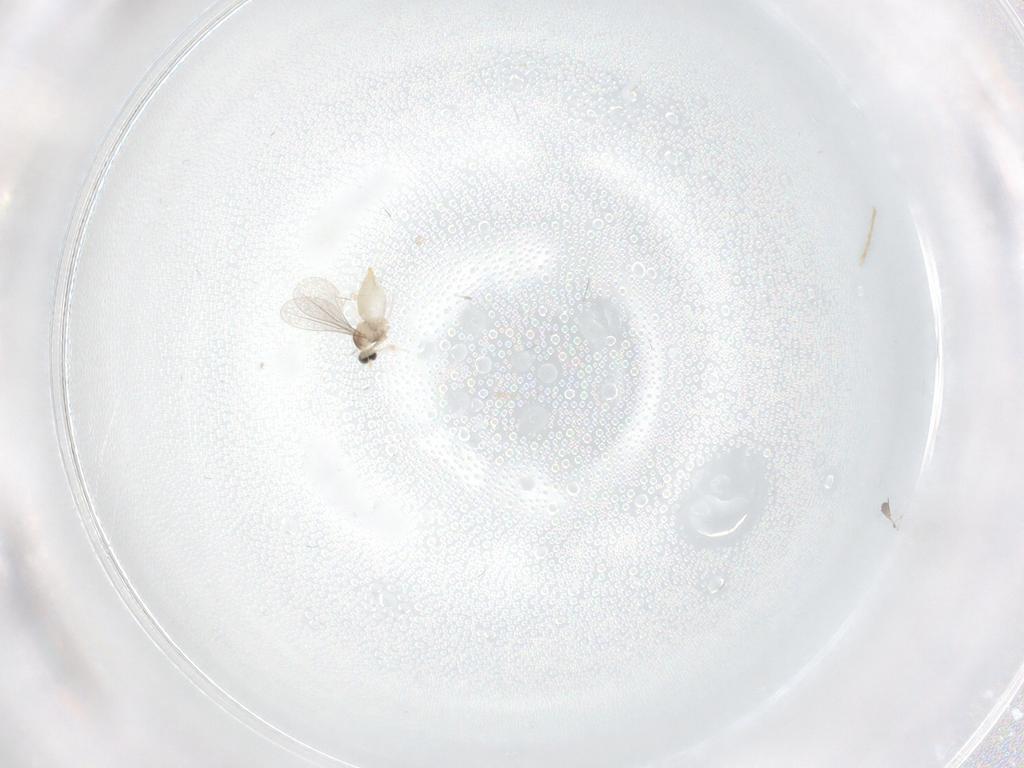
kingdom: Animalia
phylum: Arthropoda
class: Insecta
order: Diptera
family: Cecidomyiidae
